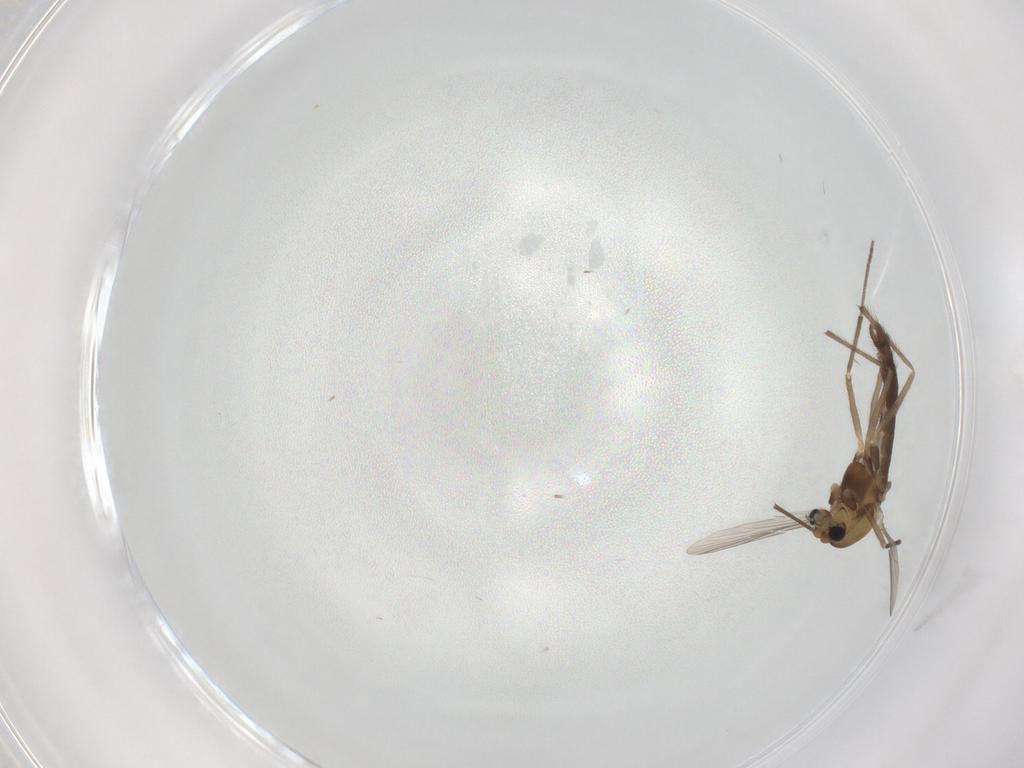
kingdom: Animalia
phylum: Arthropoda
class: Insecta
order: Diptera
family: Chironomidae
